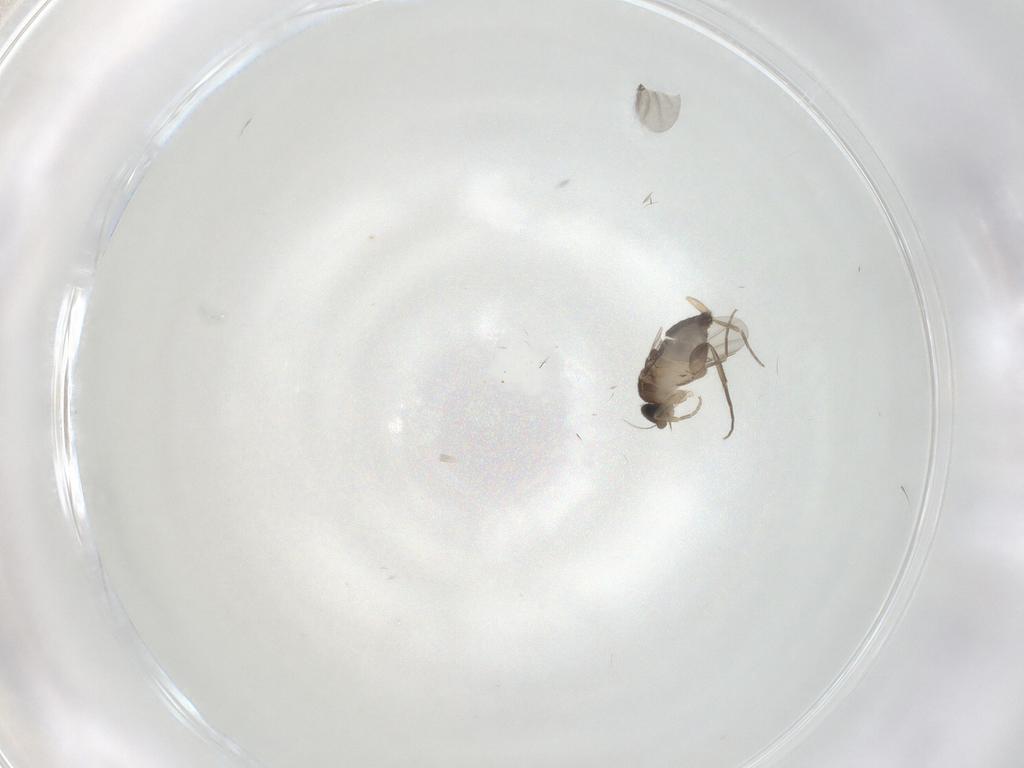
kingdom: Animalia
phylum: Arthropoda
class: Insecta
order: Diptera
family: Phoridae
